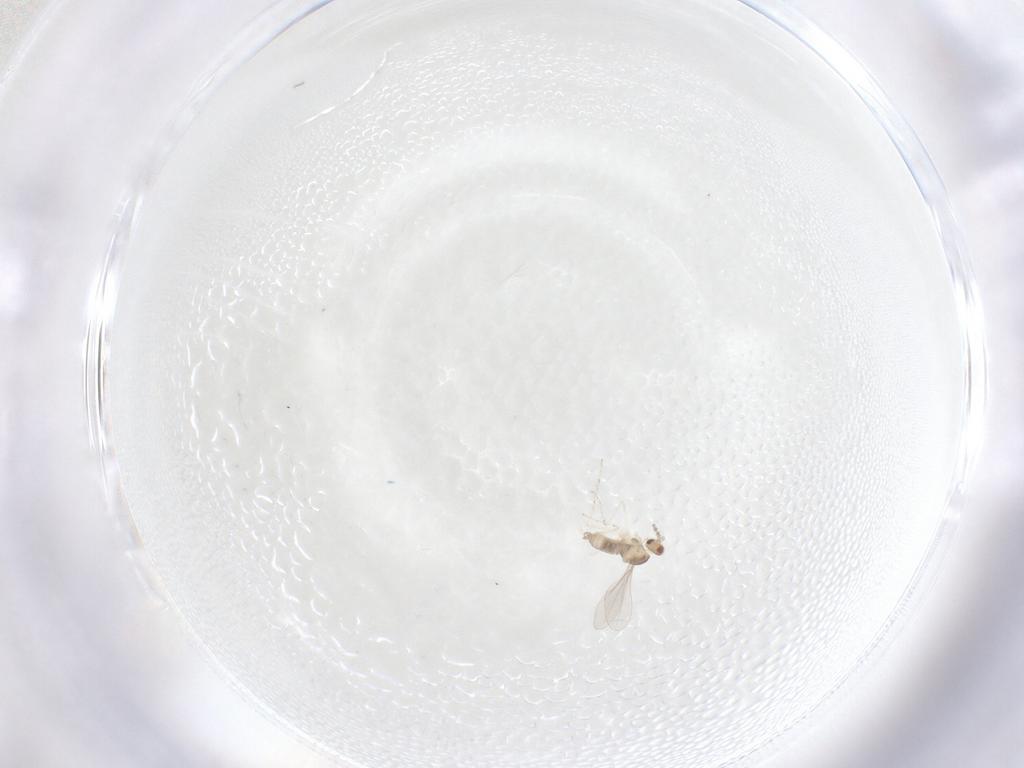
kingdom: Animalia
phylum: Arthropoda
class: Insecta
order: Diptera
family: Cecidomyiidae
